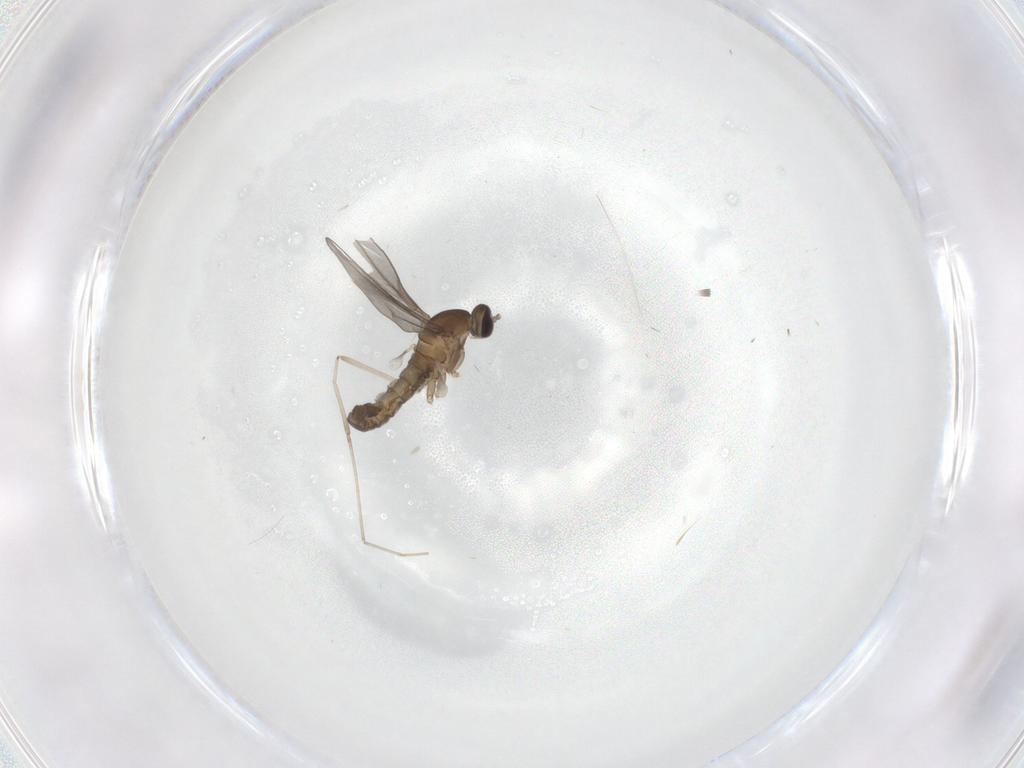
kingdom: Animalia
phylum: Arthropoda
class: Insecta
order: Diptera
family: Cecidomyiidae
